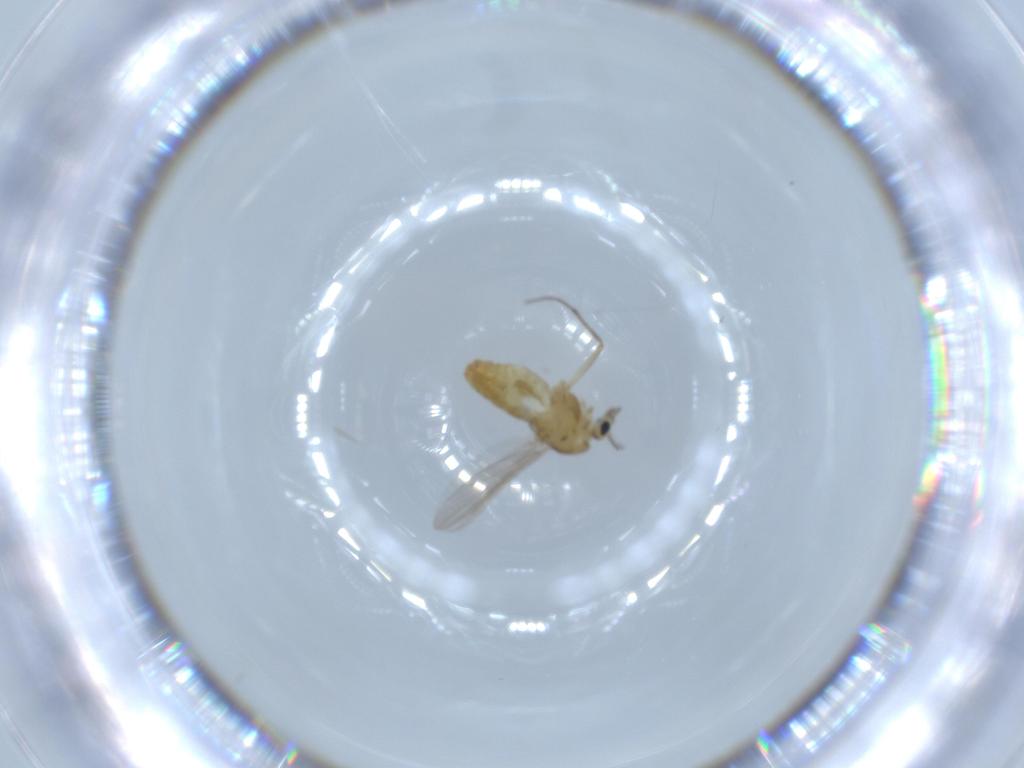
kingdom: Animalia
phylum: Arthropoda
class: Insecta
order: Diptera
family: Chironomidae
